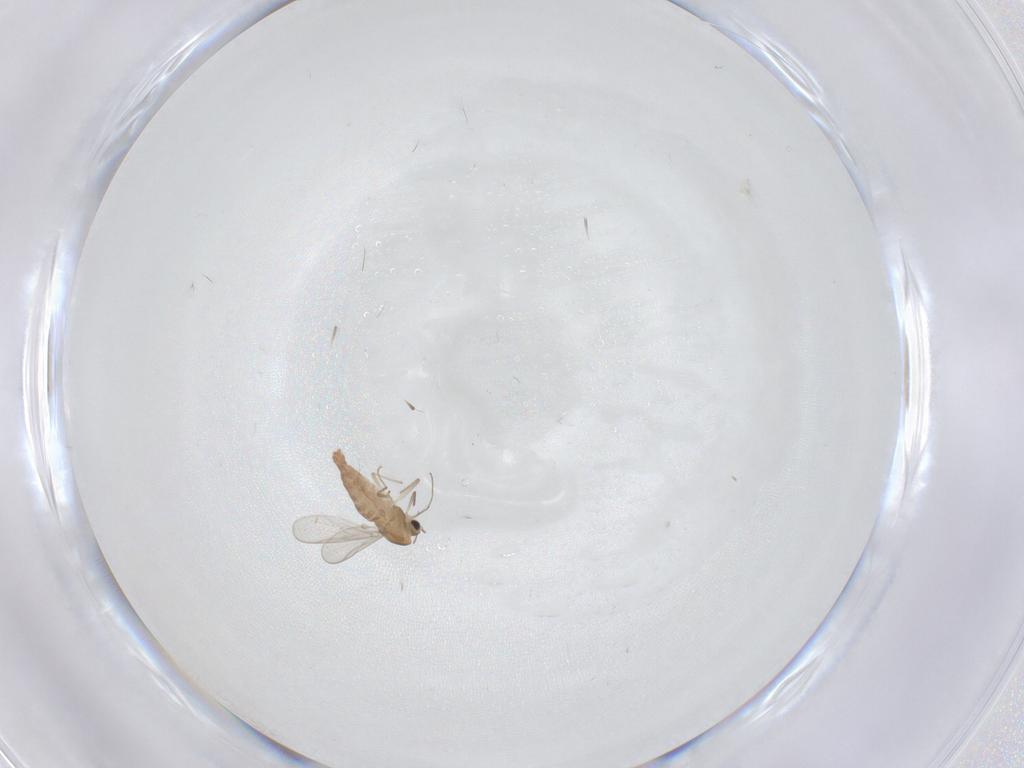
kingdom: Animalia
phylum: Arthropoda
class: Insecta
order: Diptera
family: Chironomidae
